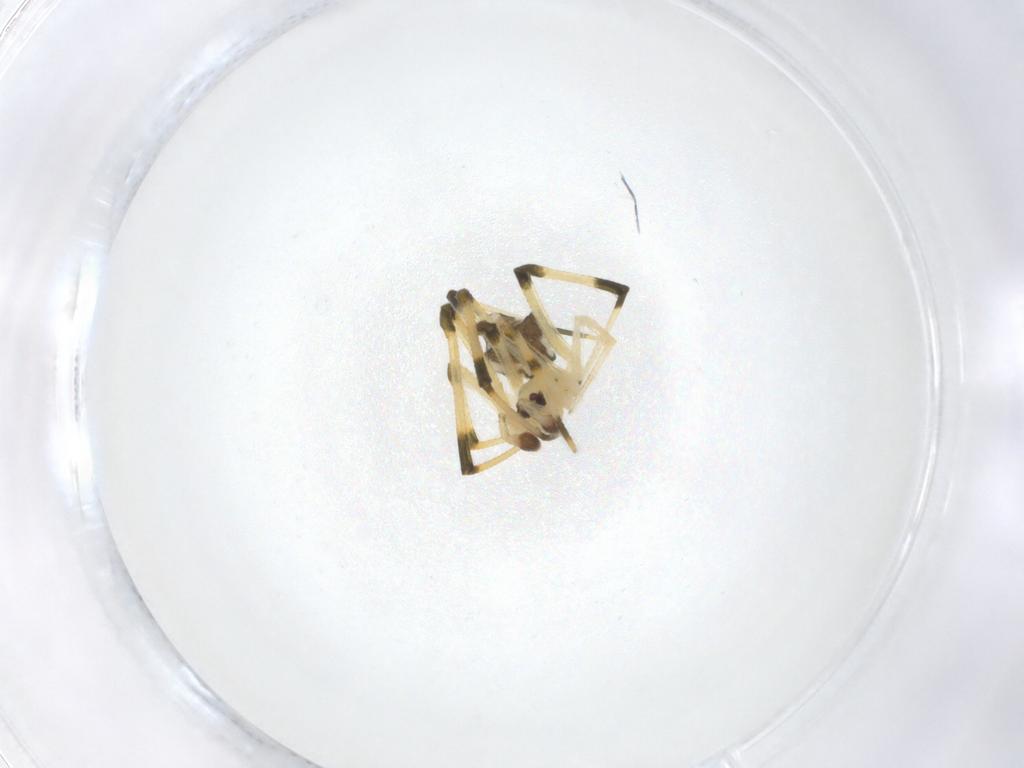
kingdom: Animalia
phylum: Arthropoda
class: Arachnida
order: Araneae
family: Theridiidae
